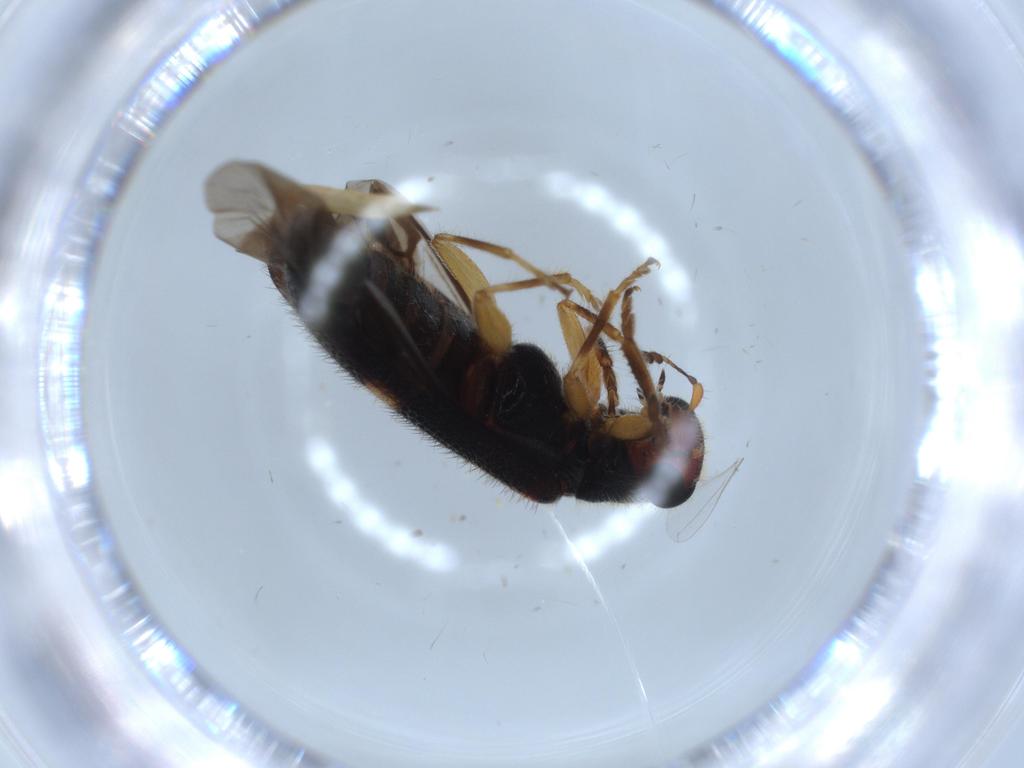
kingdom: Animalia
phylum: Arthropoda
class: Insecta
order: Coleoptera
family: Cleridae
